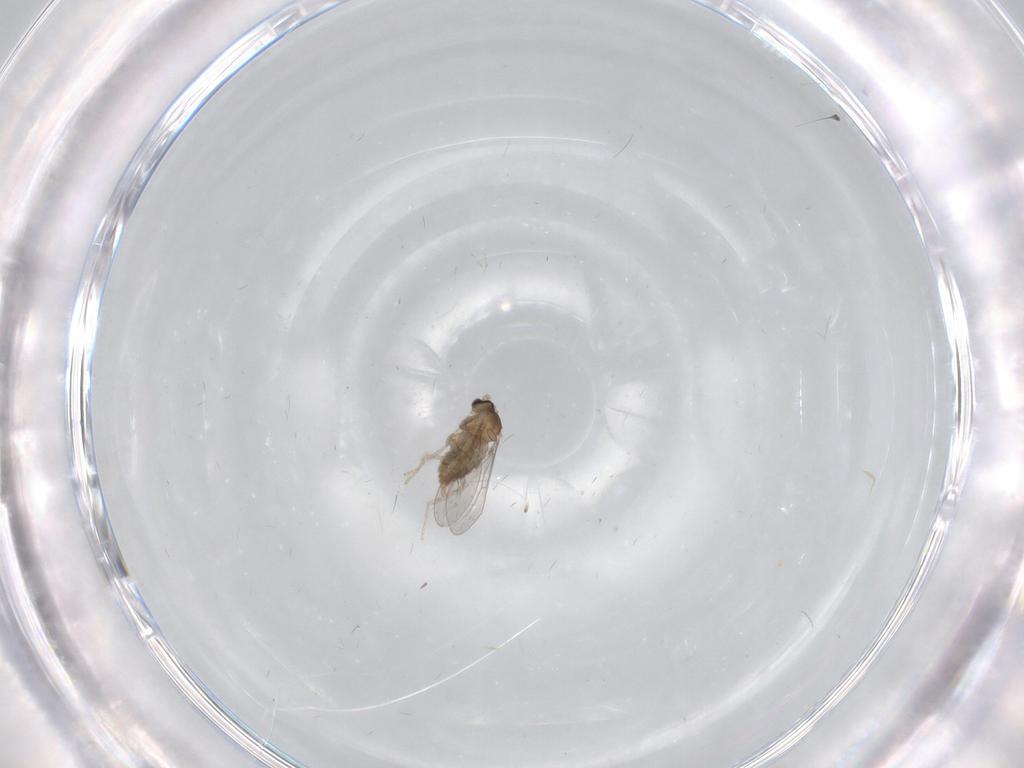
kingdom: Animalia
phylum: Arthropoda
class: Insecta
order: Diptera
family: Cecidomyiidae
